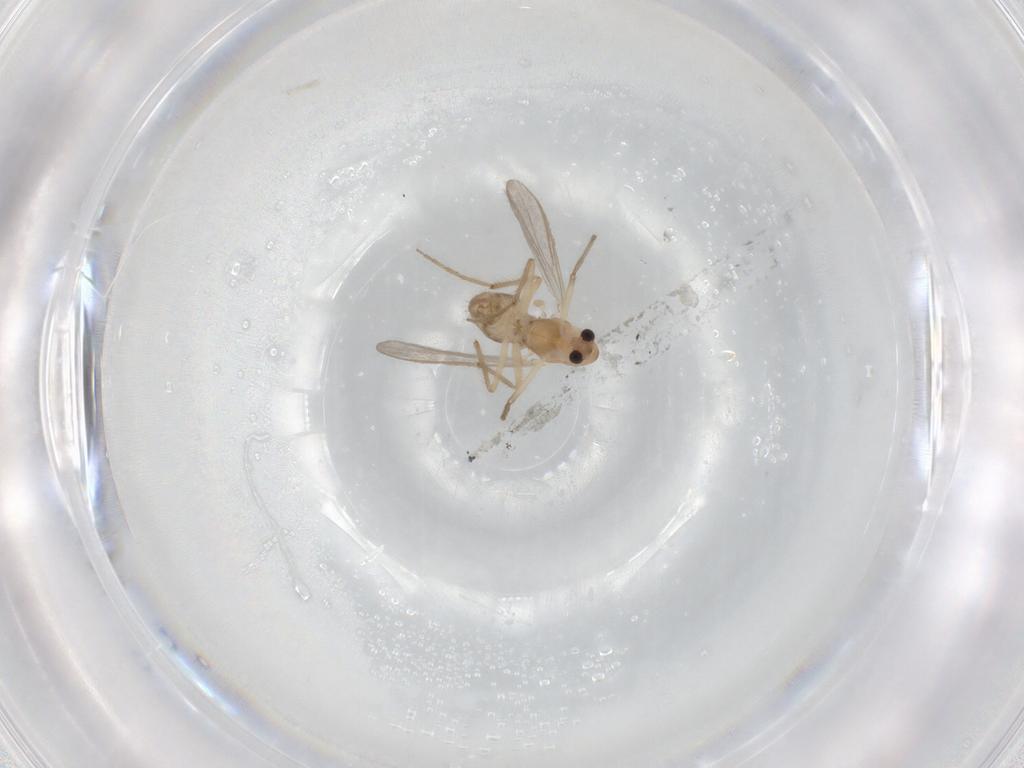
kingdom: Animalia
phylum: Arthropoda
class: Insecta
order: Diptera
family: Chironomidae
